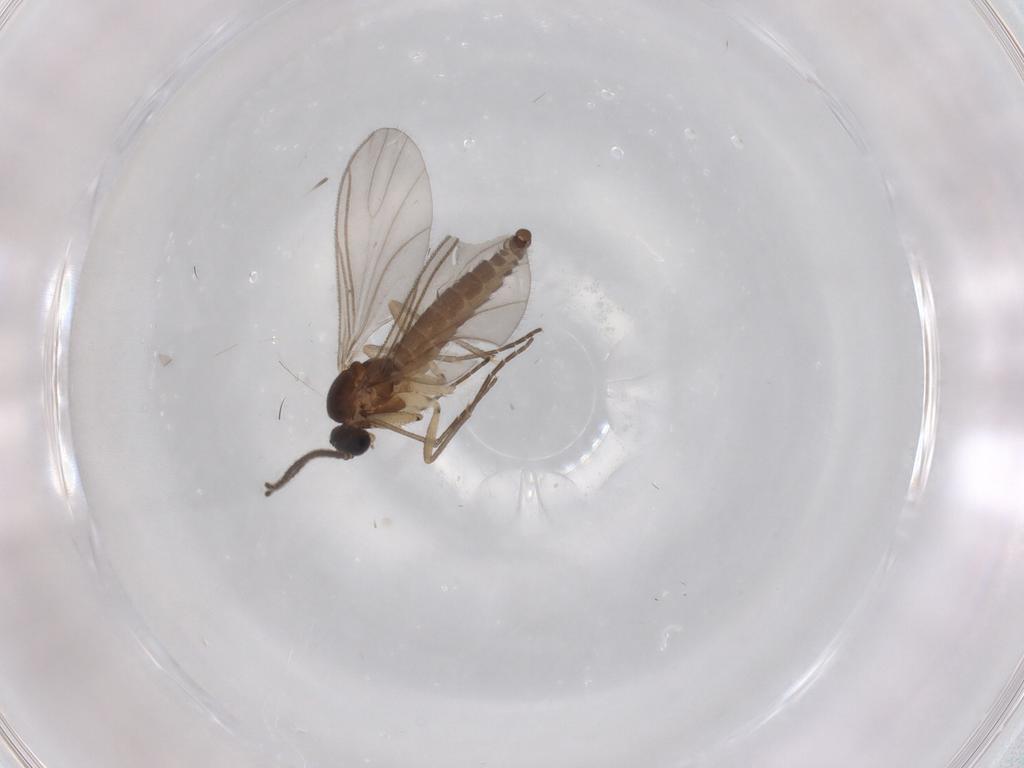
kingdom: Animalia
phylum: Arthropoda
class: Insecta
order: Diptera
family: Sciaridae
